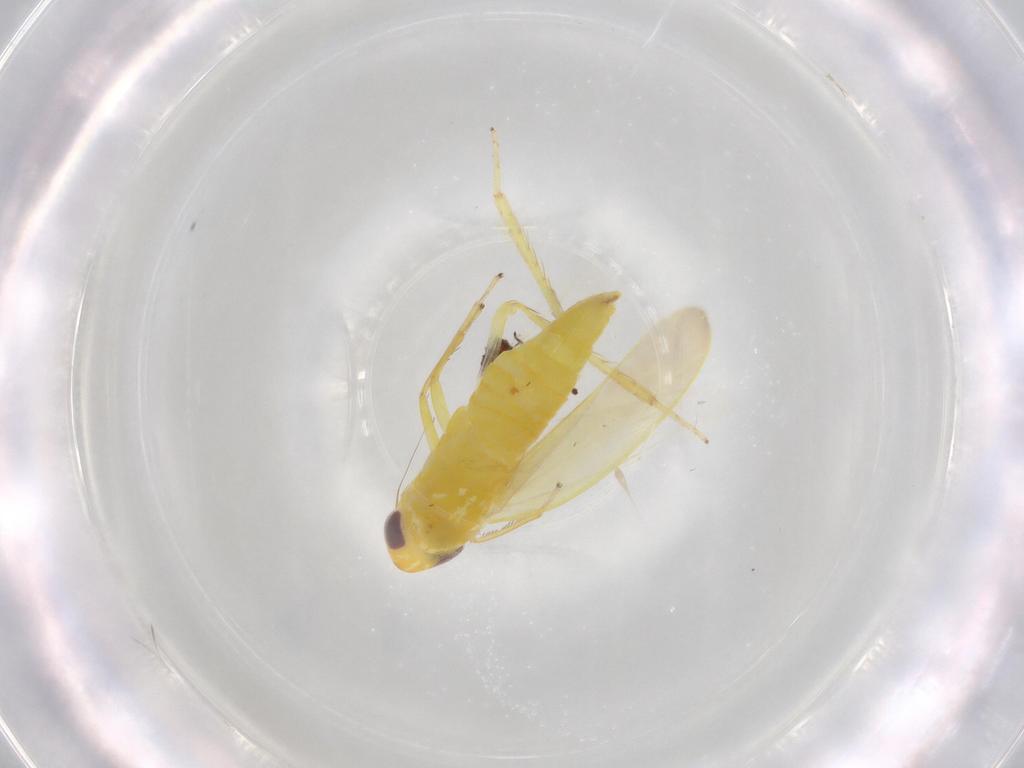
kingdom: Animalia
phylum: Arthropoda
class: Insecta
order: Hemiptera
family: Cicadellidae
